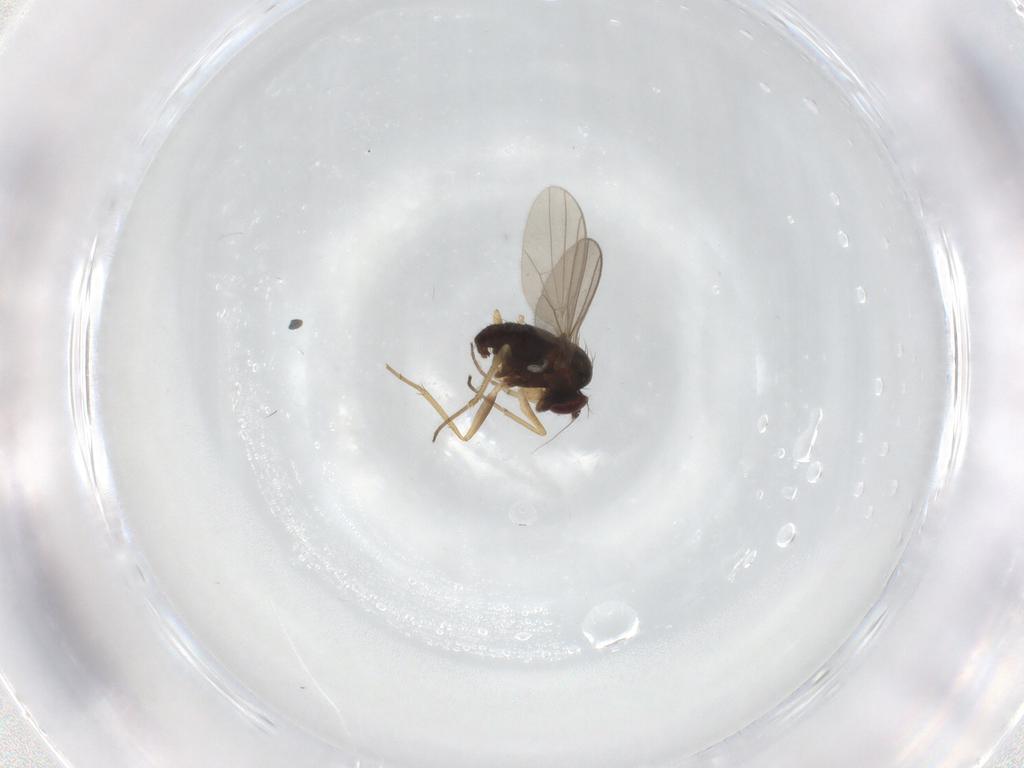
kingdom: Animalia
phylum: Arthropoda
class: Insecta
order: Diptera
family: Dolichopodidae
